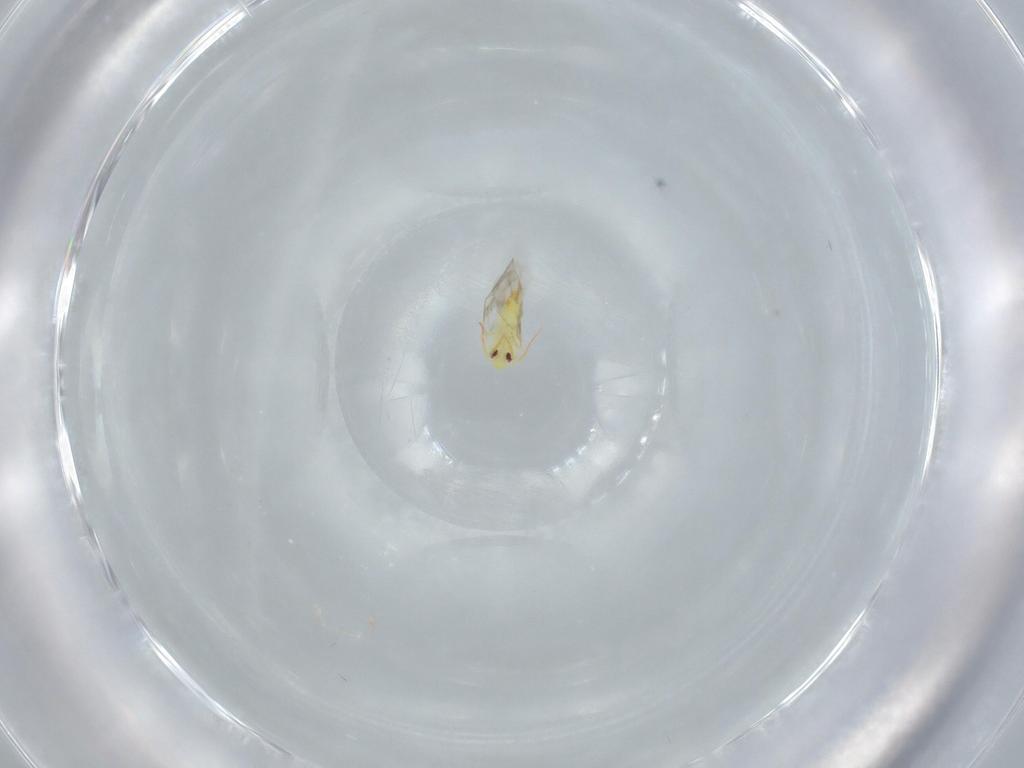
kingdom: Animalia
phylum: Arthropoda
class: Insecta
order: Hemiptera
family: Aleyrodidae
